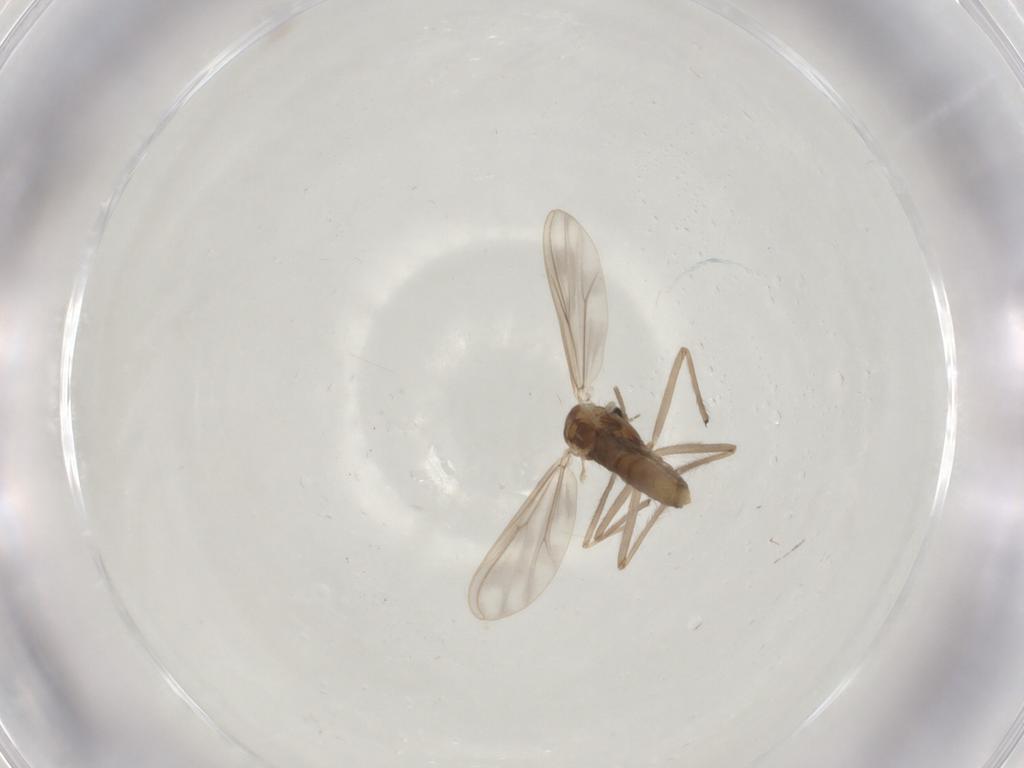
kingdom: Animalia
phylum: Arthropoda
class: Insecta
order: Diptera
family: Chironomidae
